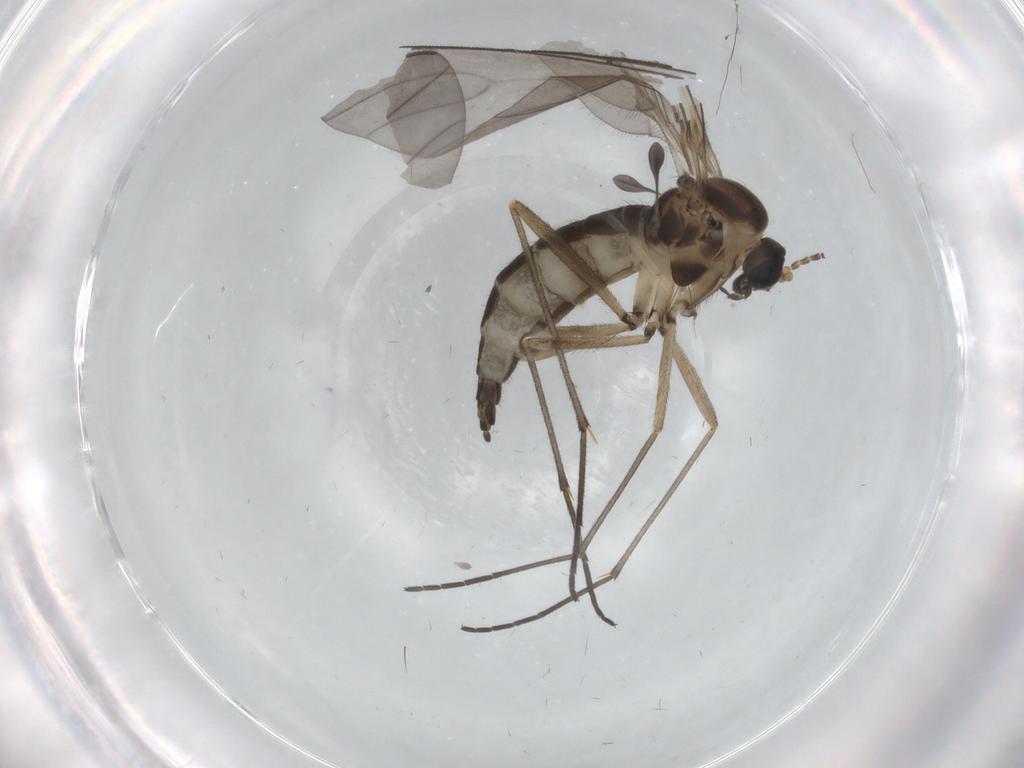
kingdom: Animalia
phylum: Arthropoda
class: Insecta
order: Diptera
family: Sciaridae
